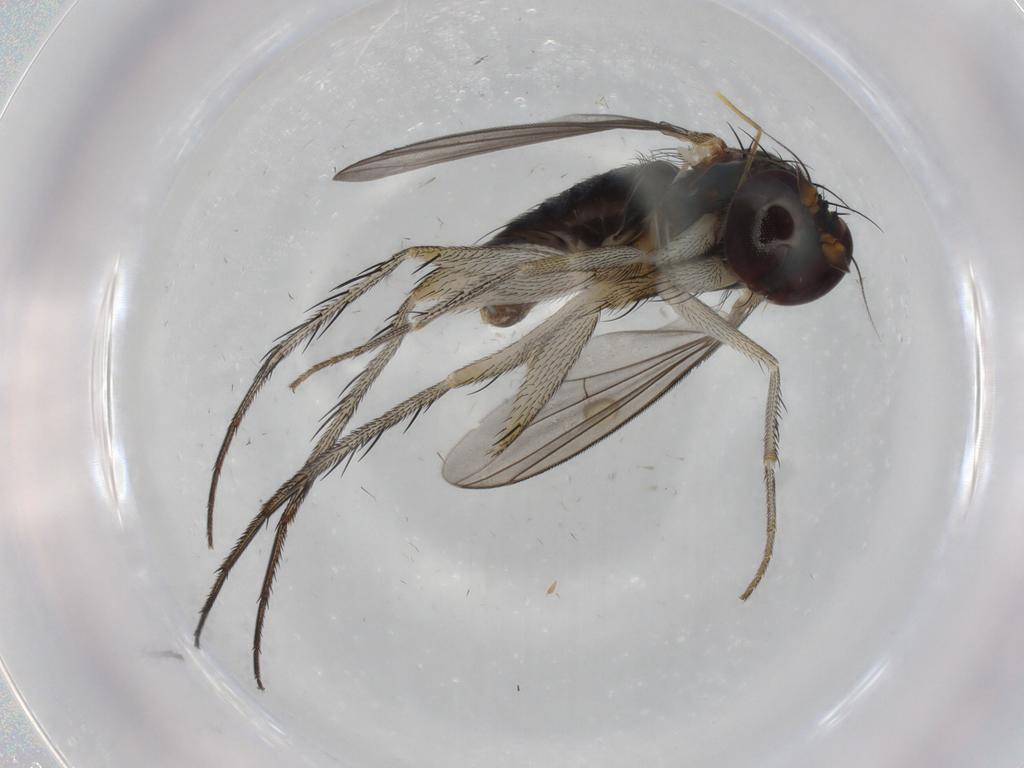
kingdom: Animalia
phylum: Arthropoda
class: Insecta
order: Diptera
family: Dolichopodidae
